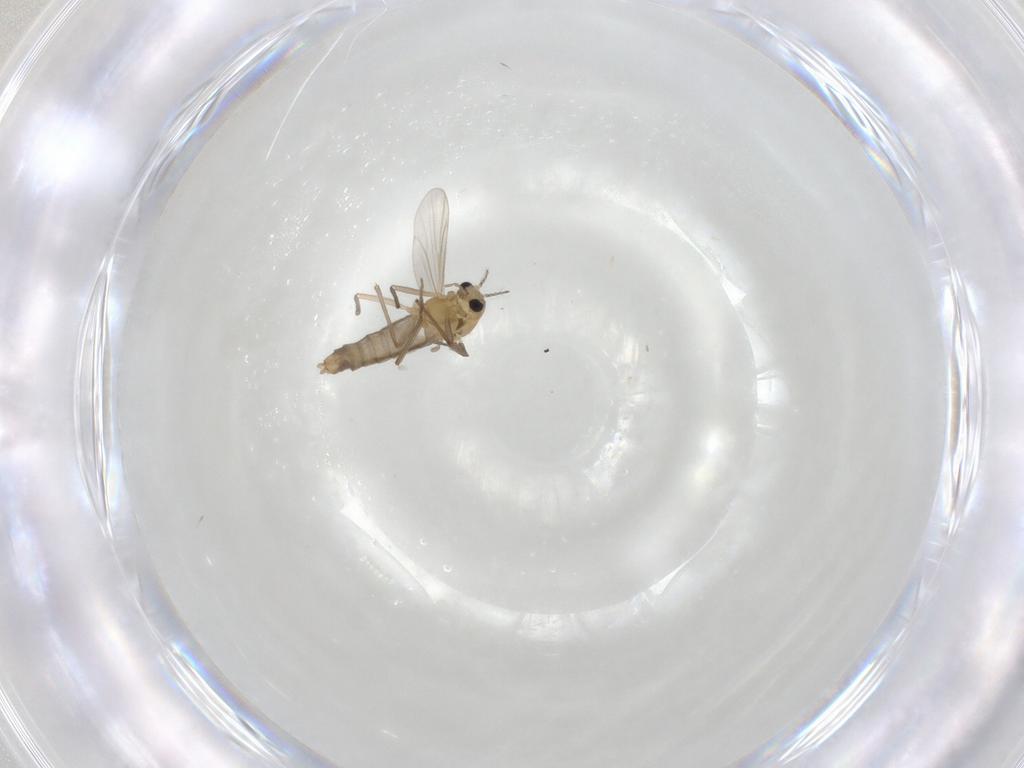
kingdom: Animalia
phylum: Arthropoda
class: Insecta
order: Diptera
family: Chironomidae
